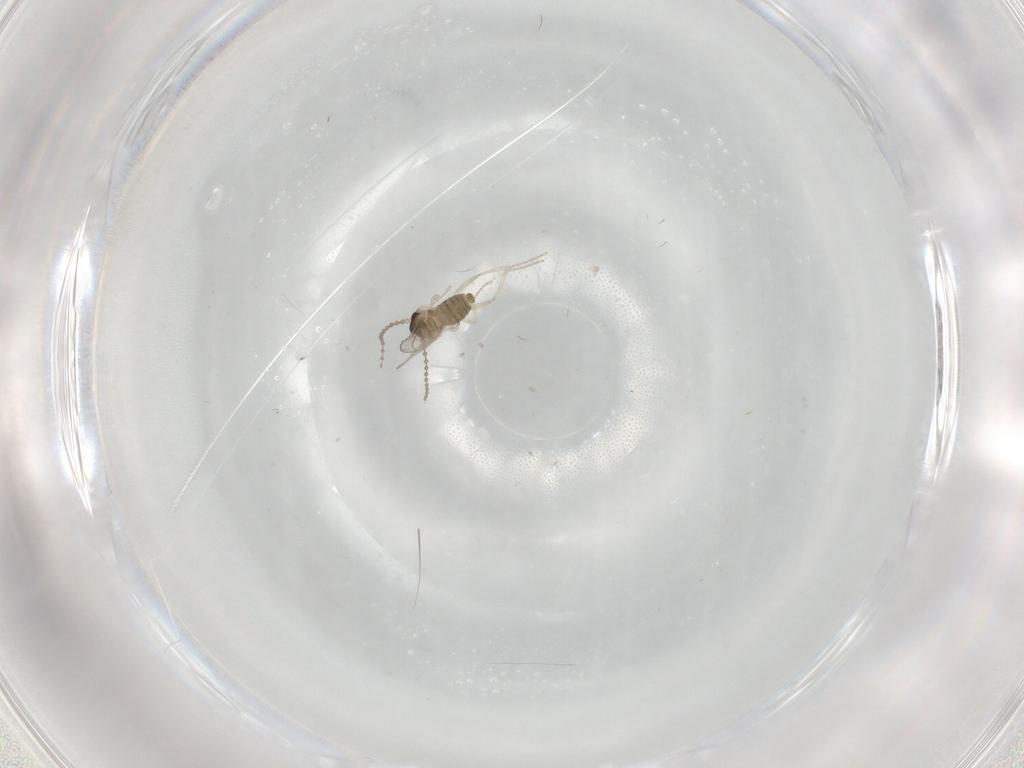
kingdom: Animalia
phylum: Arthropoda
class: Insecta
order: Diptera
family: Cecidomyiidae
